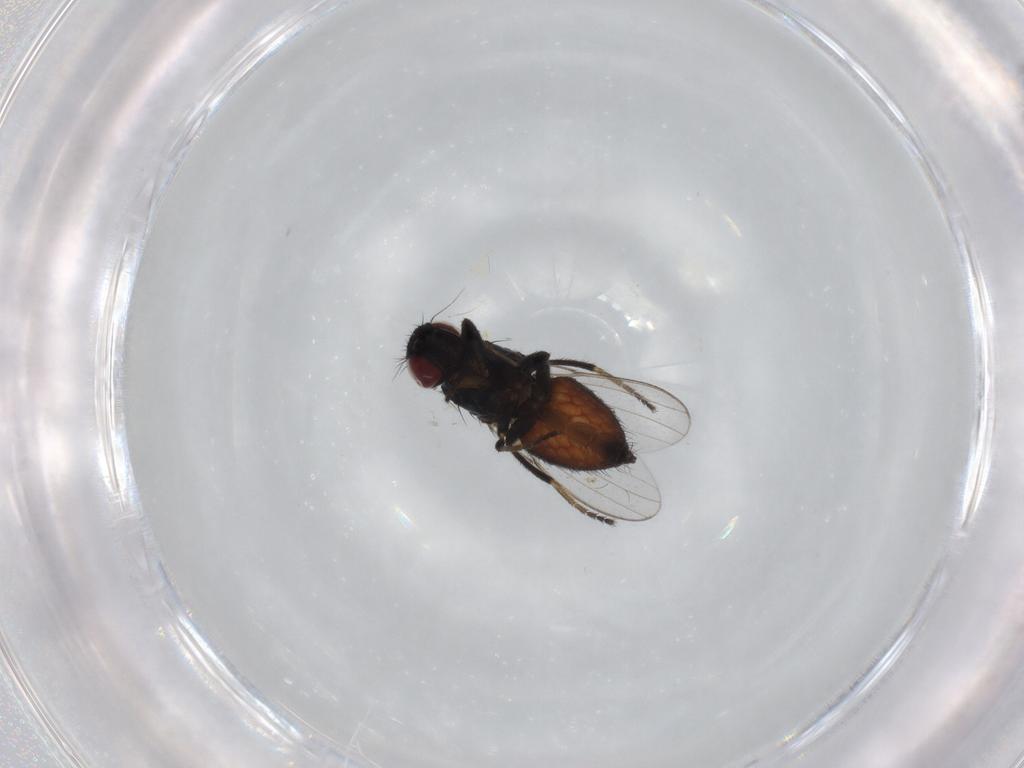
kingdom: Animalia
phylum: Arthropoda
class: Insecta
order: Diptera
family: Milichiidae
